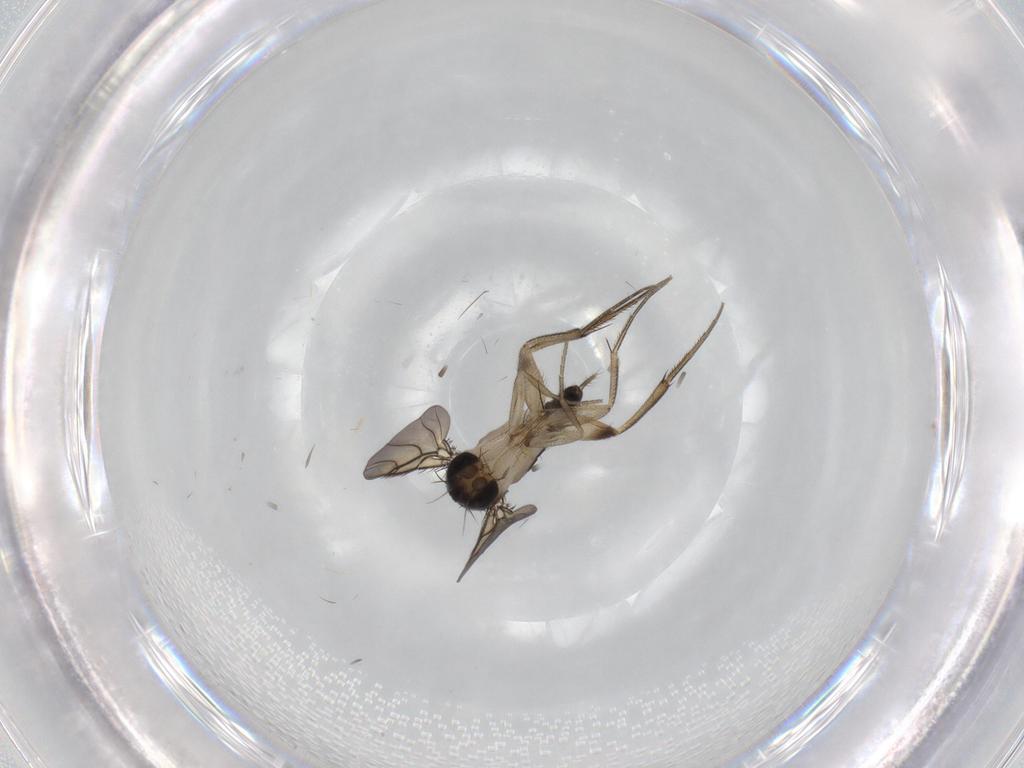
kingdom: Animalia
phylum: Arthropoda
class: Insecta
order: Diptera
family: Phoridae
